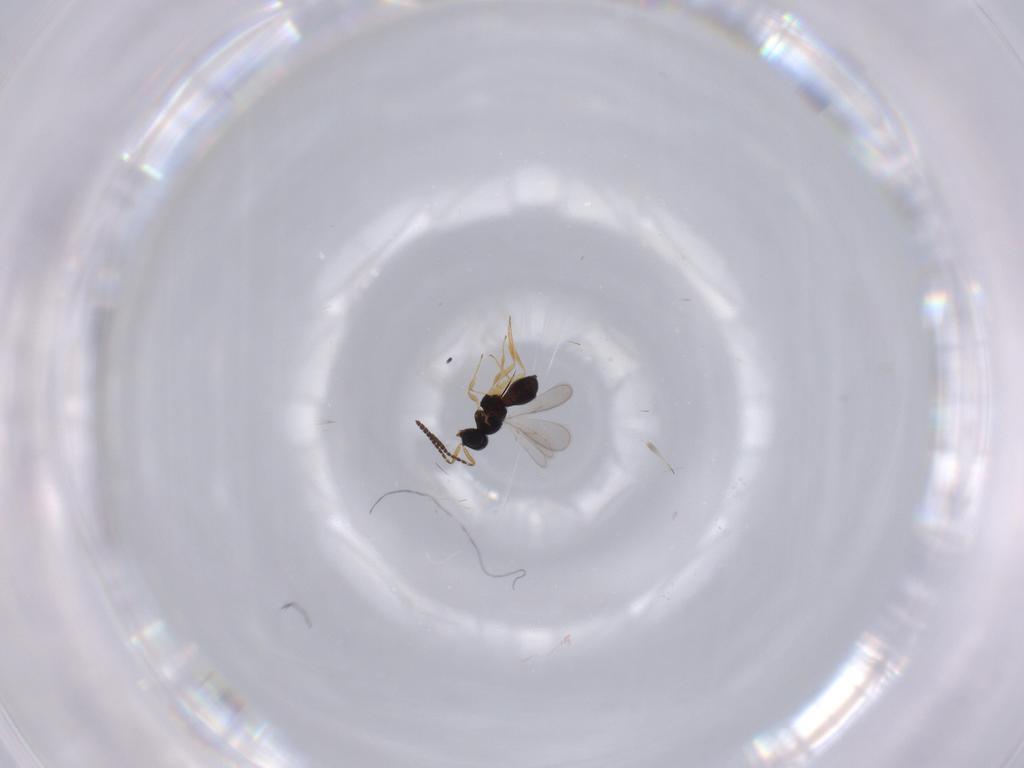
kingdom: Animalia
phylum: Arthropoda
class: Insecta
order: Hymenoptera
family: Scelionidae
